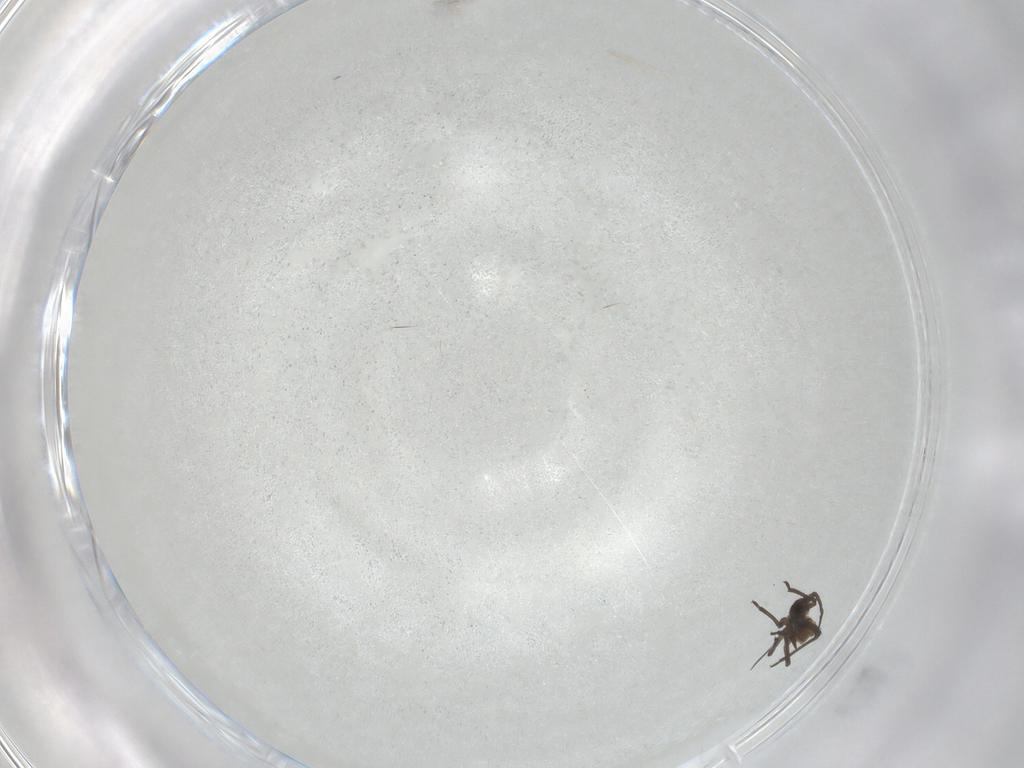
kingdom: Animalia
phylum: Arthropoda
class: Insecta
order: Hemiptera
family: Aphididae
